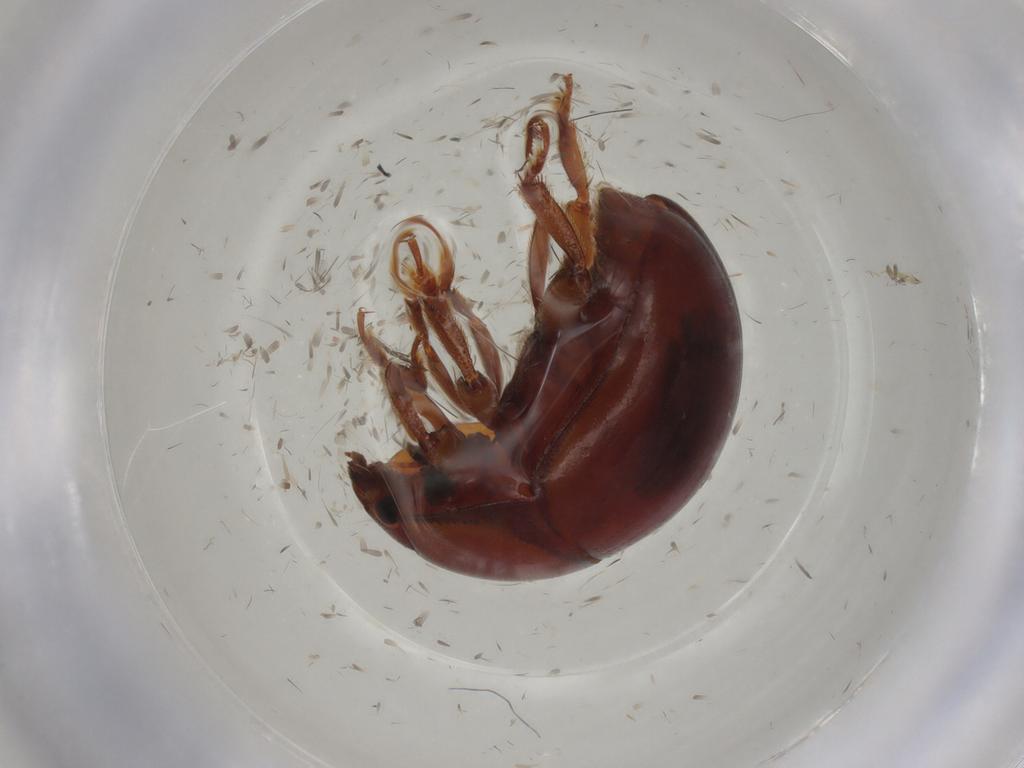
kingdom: Animalia
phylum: Arthropoda
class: Insecta
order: Coleoptera
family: Nitidulidae
